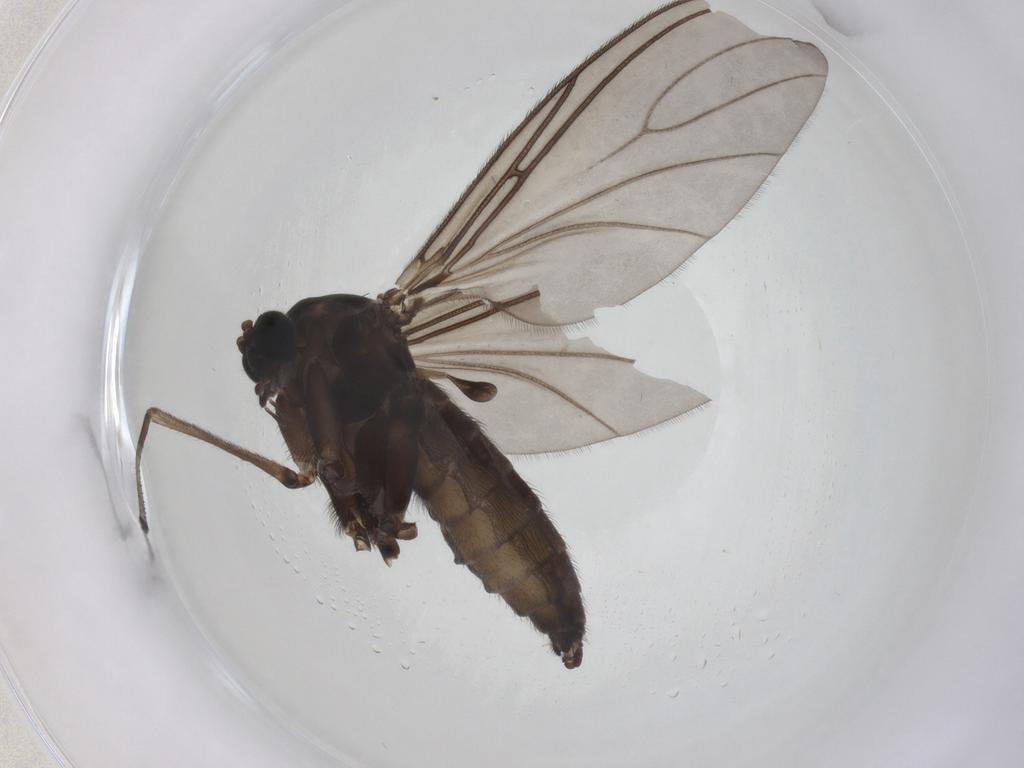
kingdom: Animalia
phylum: Arthropoda
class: Insecta
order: Diptera
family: Sciaridae
